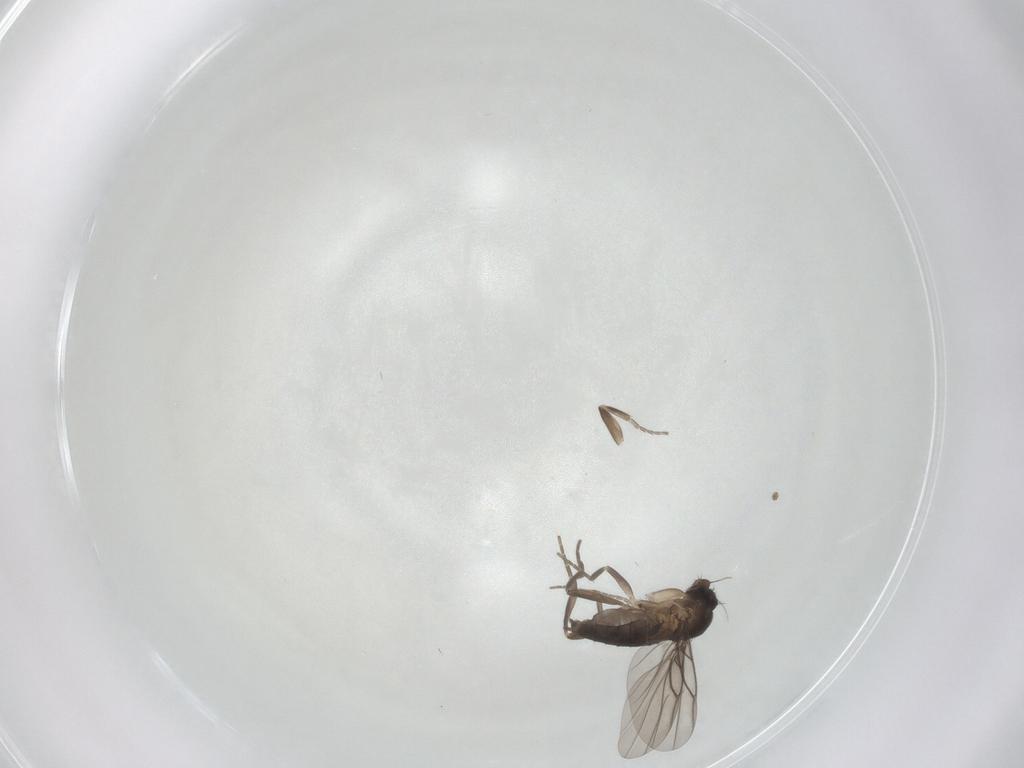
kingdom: Animalia
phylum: Arthropoda
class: Insecta
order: Diptera
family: Phoridae
